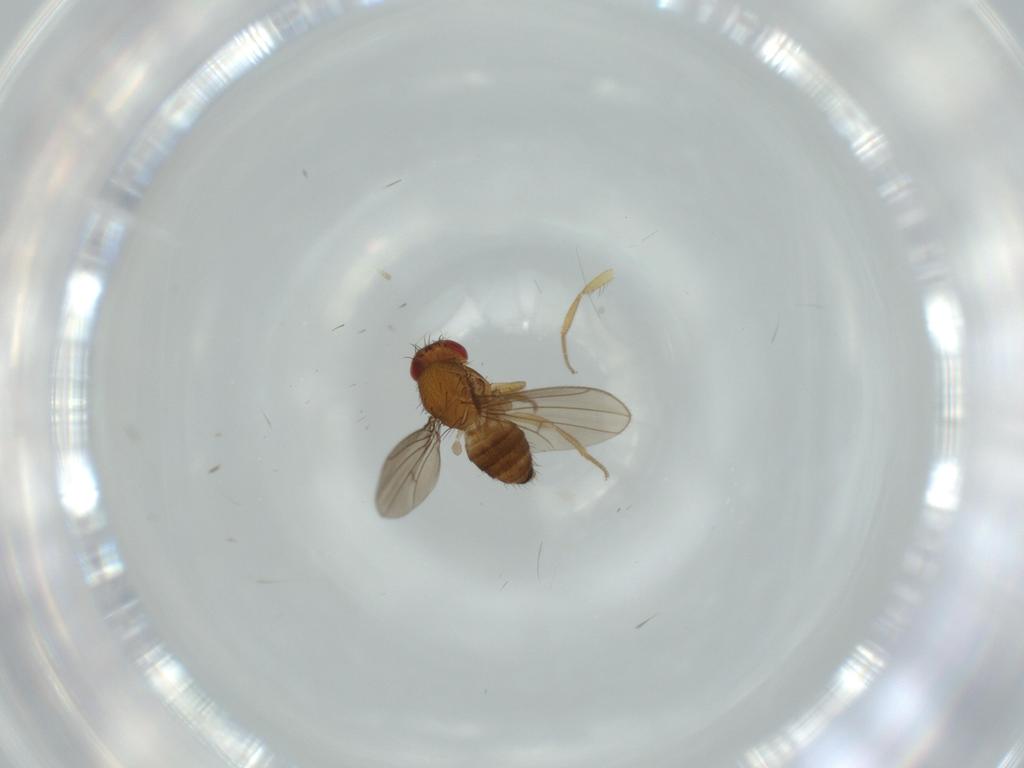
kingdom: Animalia
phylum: Arthropoda
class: Insecta
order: Diptera
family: Drosophilidae
